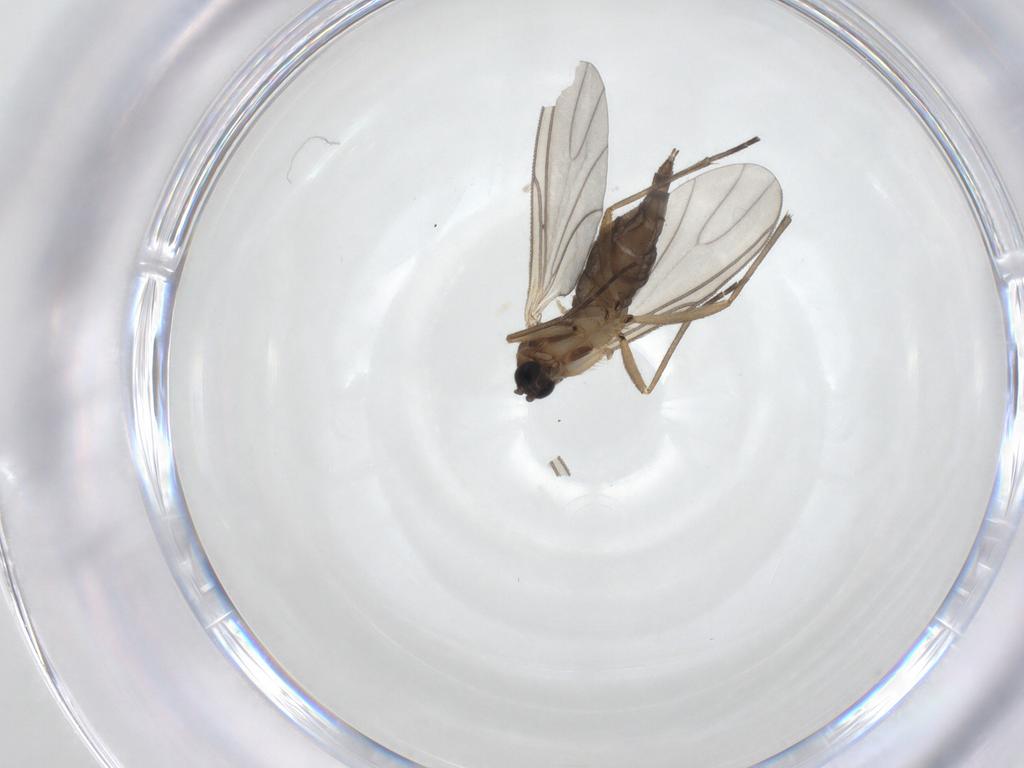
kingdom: Animalia
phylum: Arthropoda
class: Insecta
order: Diptera
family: Sciaridae
